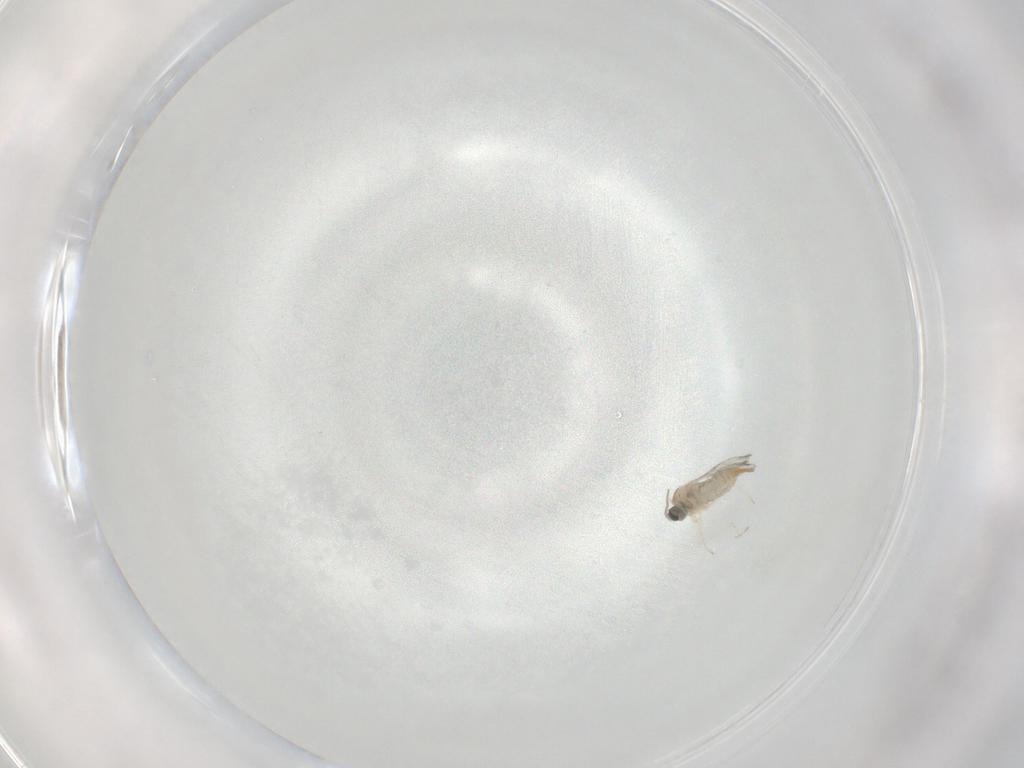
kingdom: Animalia
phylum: Arthropoda
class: Insecta
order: Diptera
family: Cecidomyiidae
